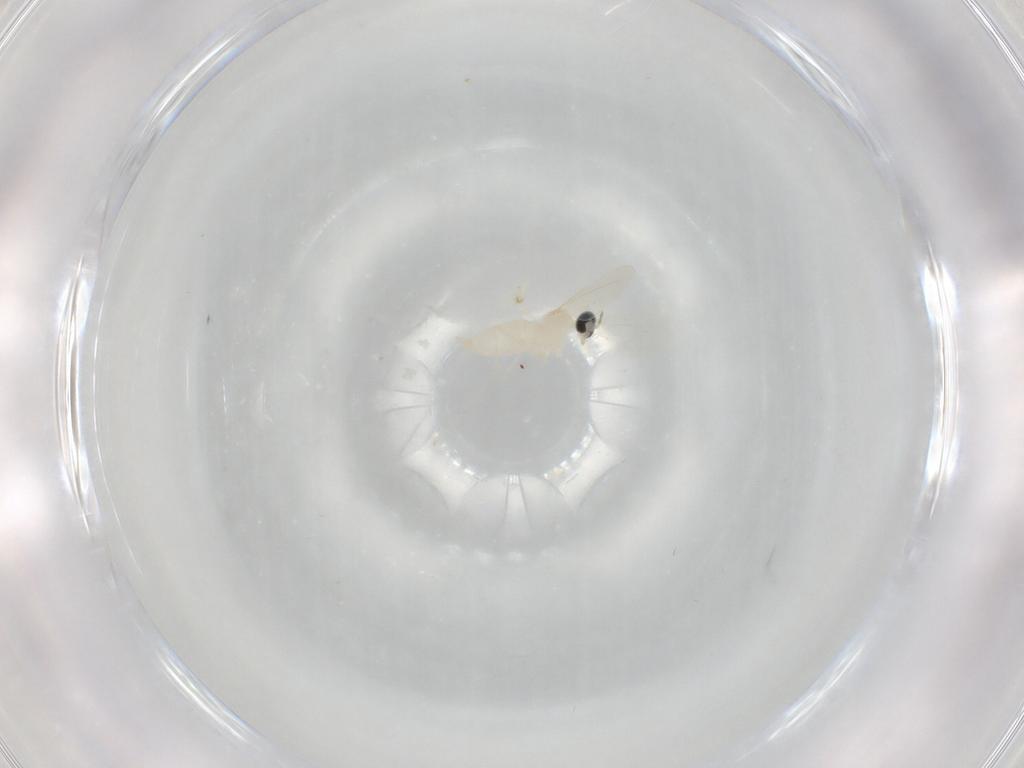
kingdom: Animalia
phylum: Arthropoda
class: Insecta
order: Diptera
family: Cecidomyiidae
